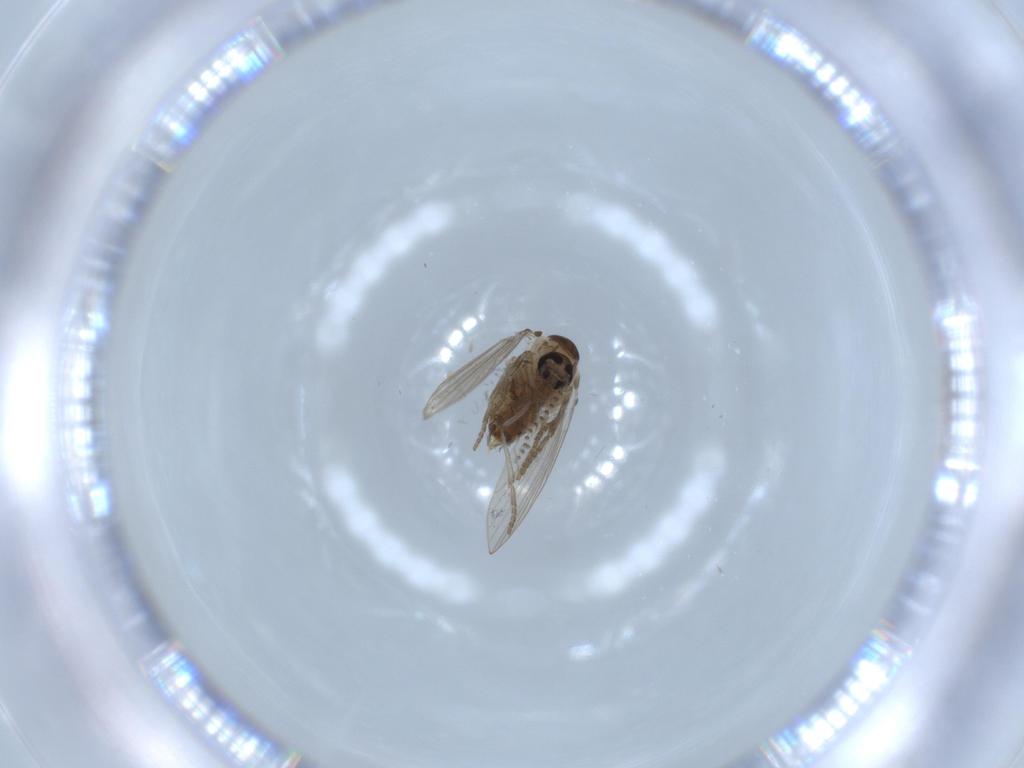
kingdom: Animalia
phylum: Arthropoda
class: Insecta
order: Diptera
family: Psychodidae
